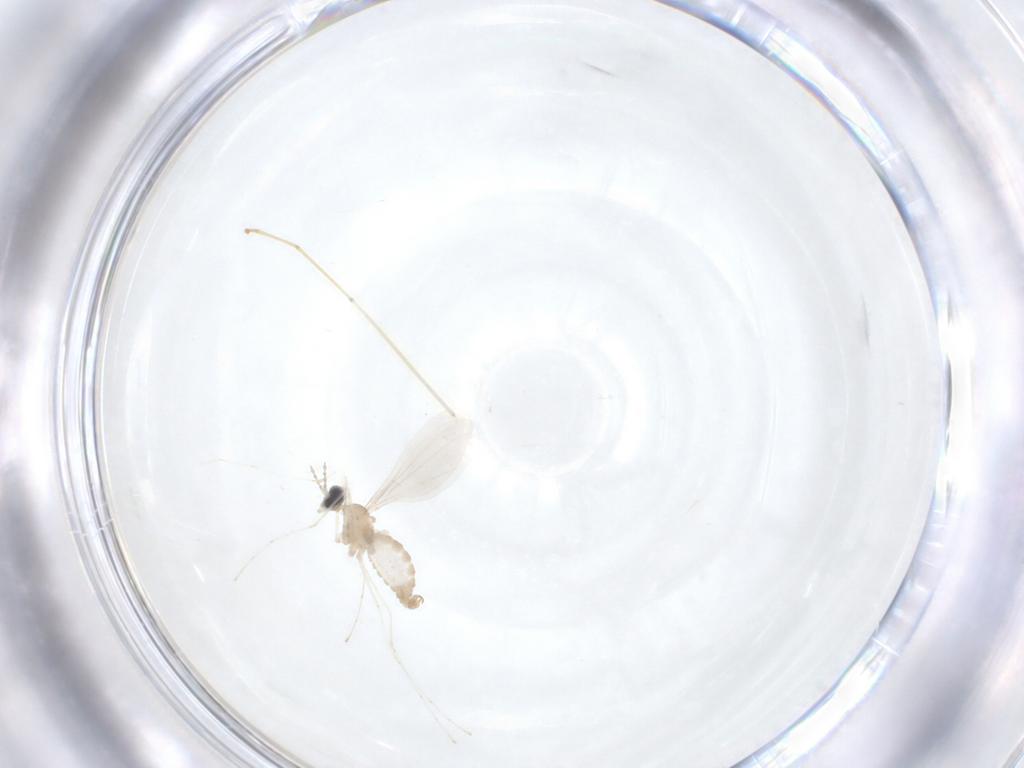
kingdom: Animalia
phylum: Arthropoda
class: Insecta
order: Diptera
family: Cecidomyiidae
